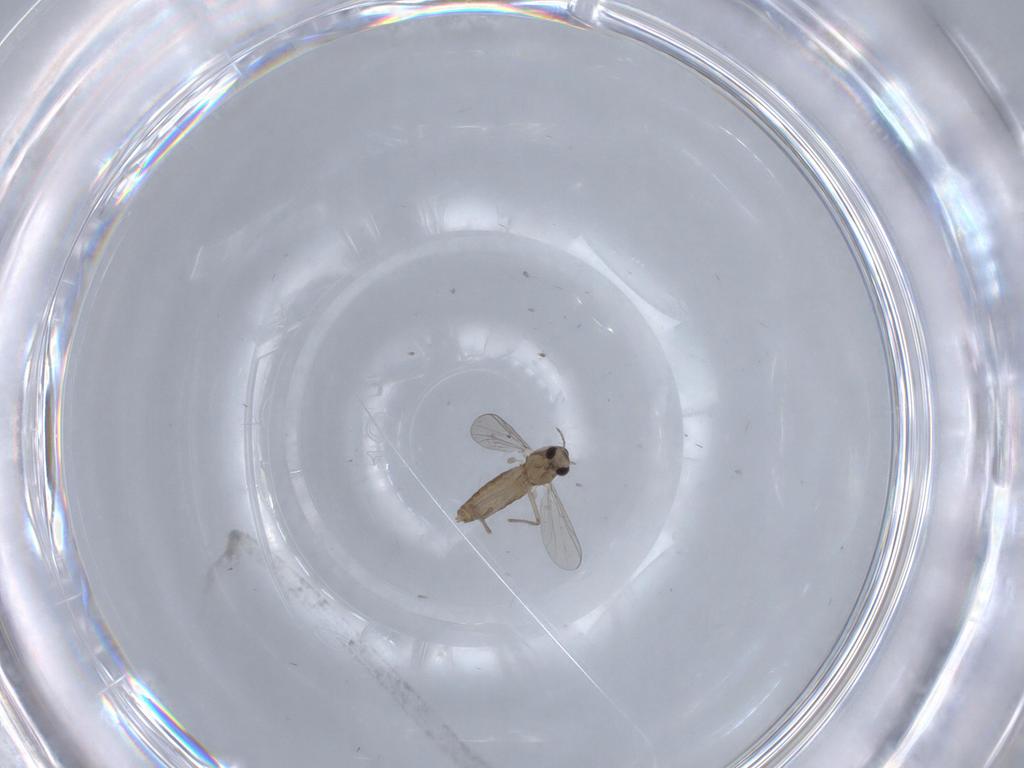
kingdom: Animalia
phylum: Arthropoda
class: Insecta
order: Diptera
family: Chironomidae
